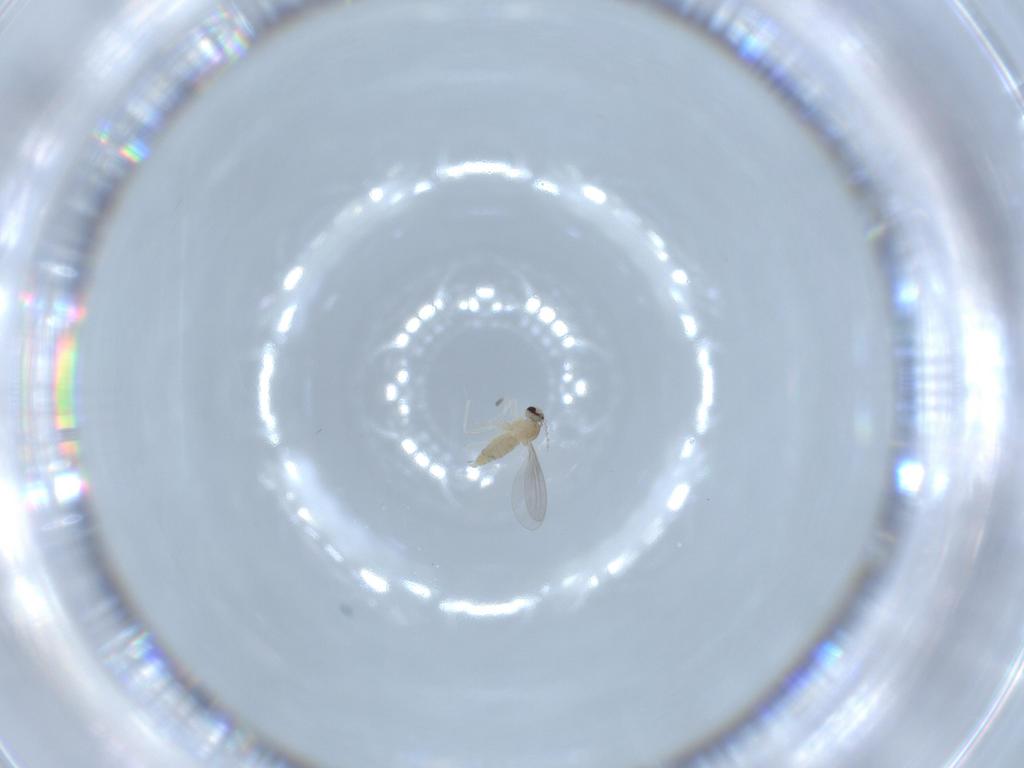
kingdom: Animalia
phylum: Arthropoda
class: Insecta
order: Diptera
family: Cecidomyiidae
